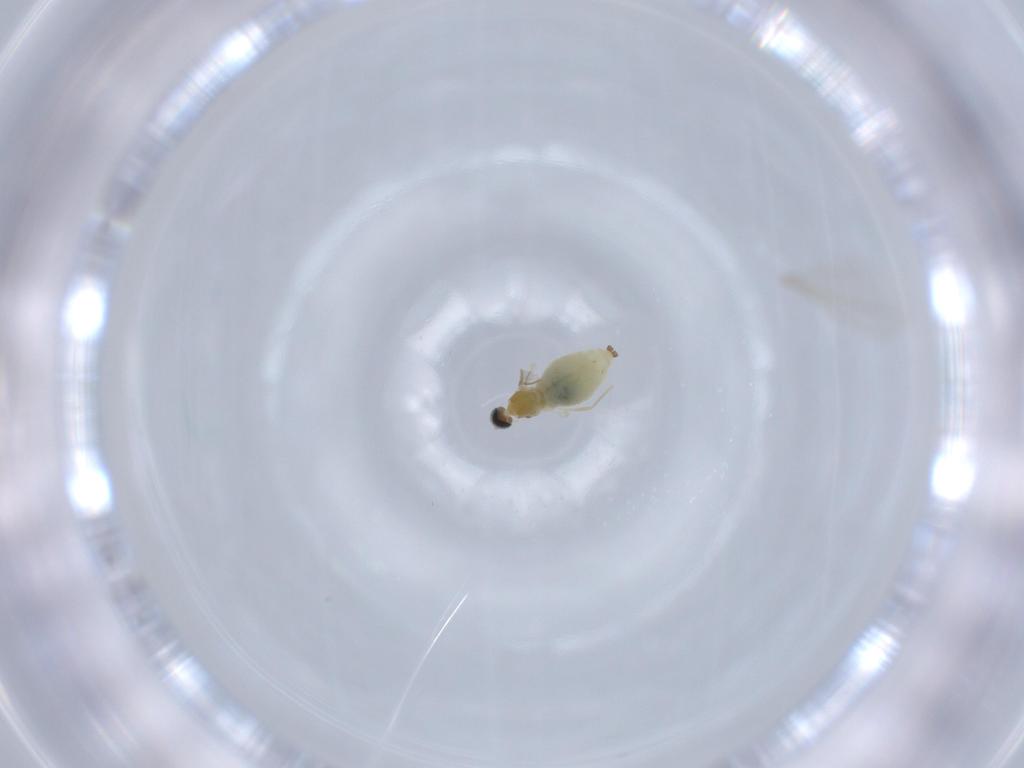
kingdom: Animalia
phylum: Arthropoda
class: Insecta
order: Diptera
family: Cecidomyiidae
